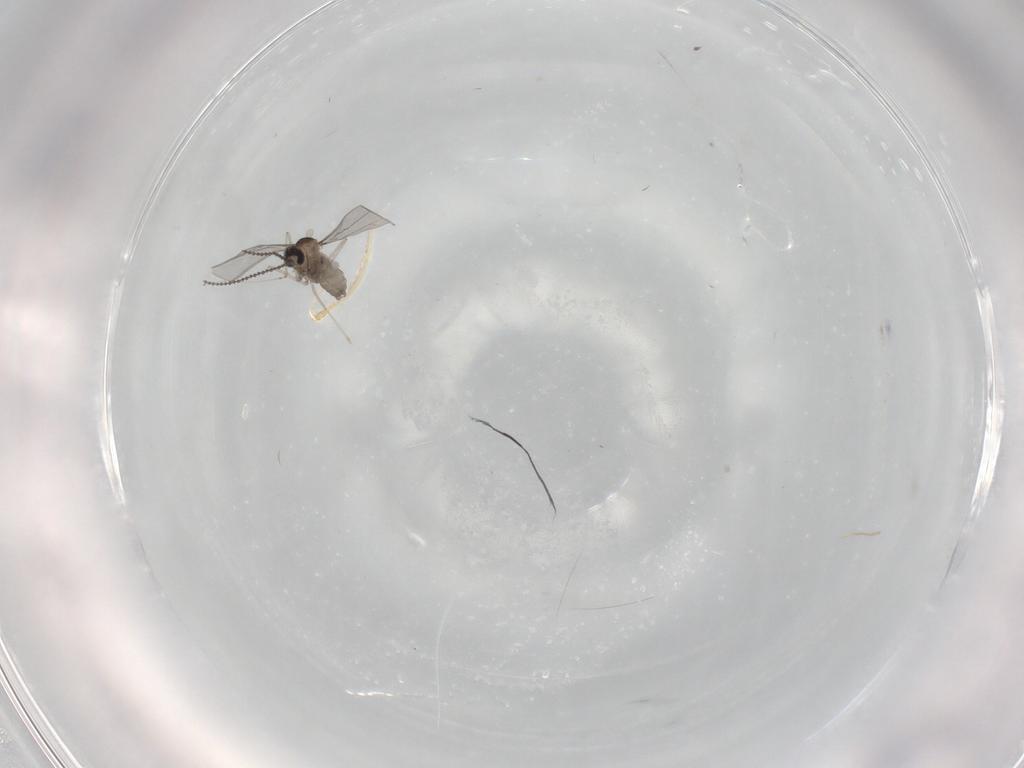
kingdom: Animalia
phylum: Arthropoda
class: Insecta
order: Diptera
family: Cecidomyiidae
